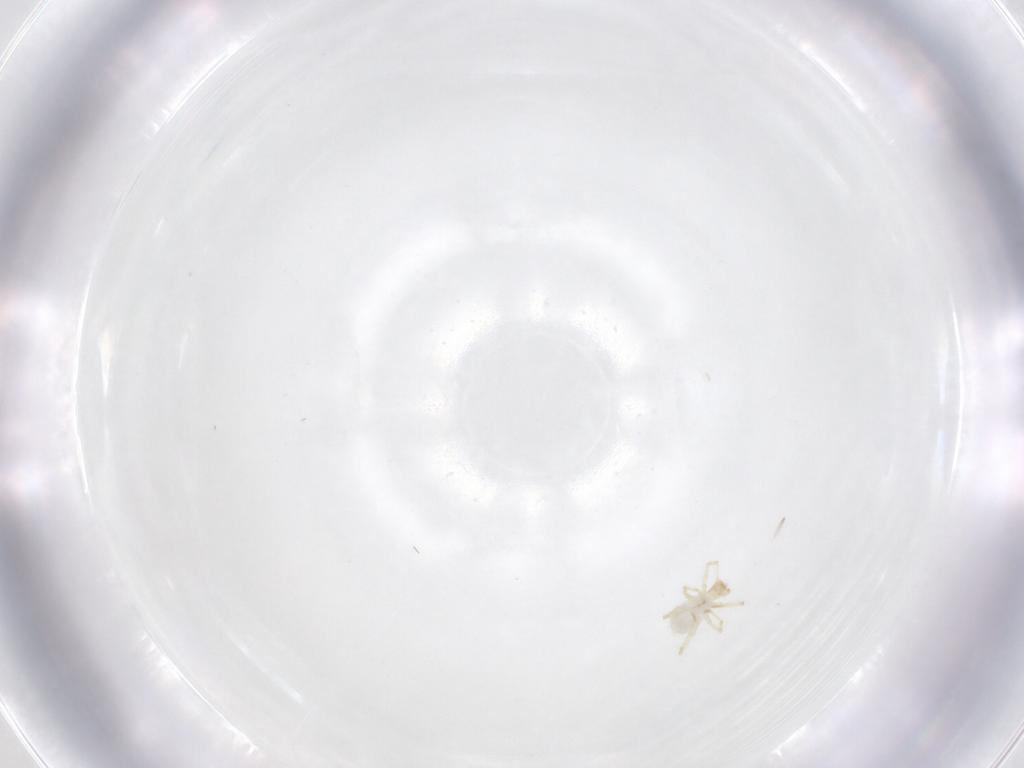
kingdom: Animalia
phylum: Arthropoda
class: Arachnida
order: Trombidiformes
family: Erythraeidae
